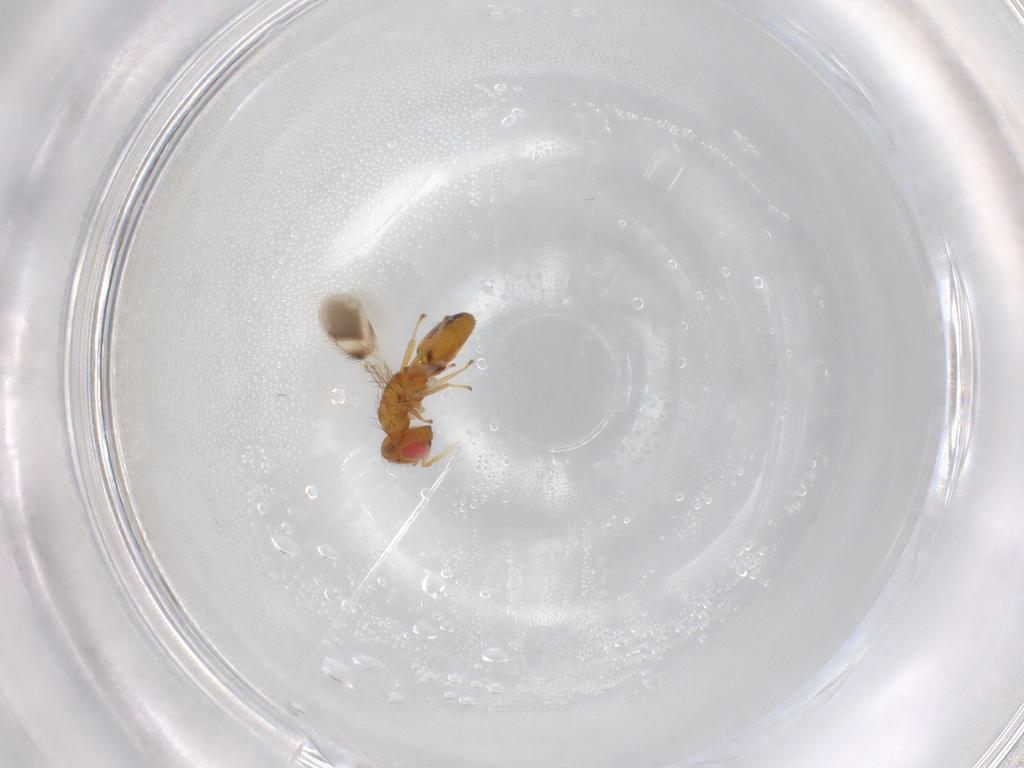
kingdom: Animalia
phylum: Arthropoda
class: Insecta
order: Hymenoptera
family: Eulophidae
